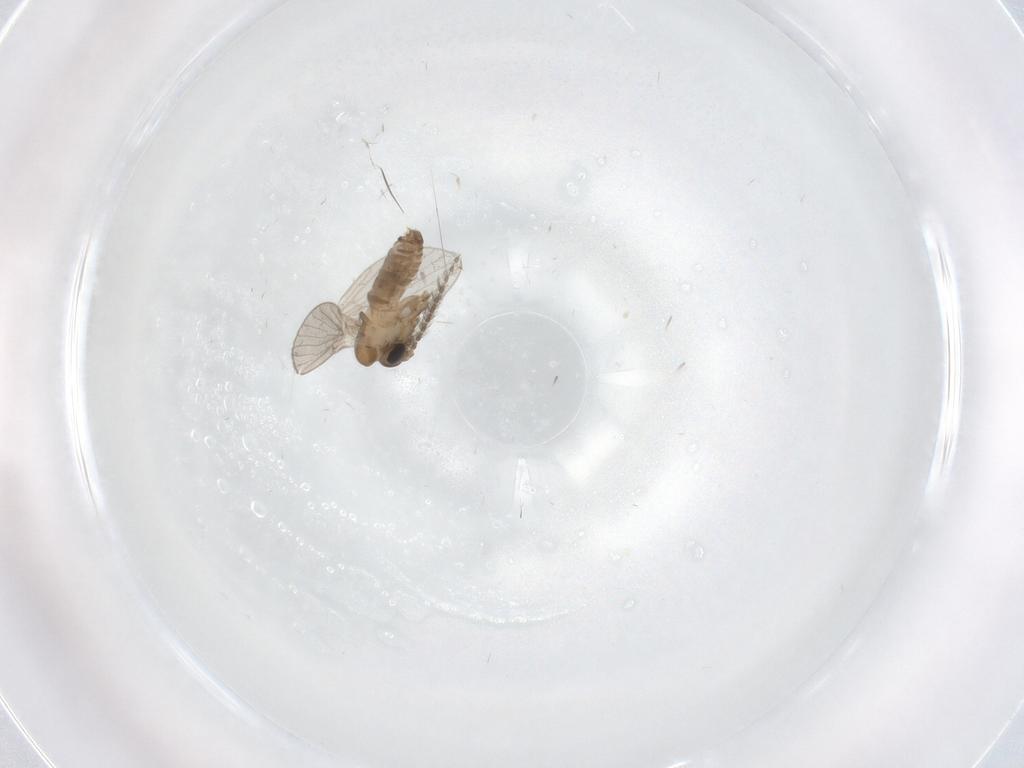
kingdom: Animalia
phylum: Arthropoda
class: Insecta
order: Diptera
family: Psychodidae
